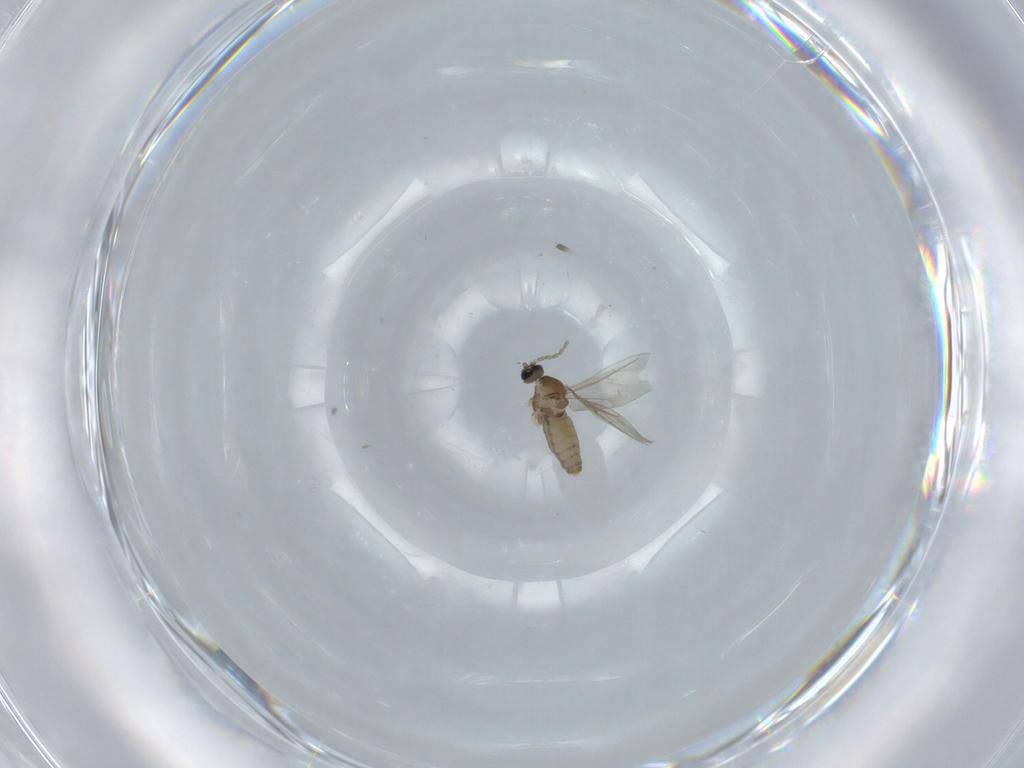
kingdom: Animalia
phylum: Arthropoda
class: Insecta
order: Diptera
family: Cecidomyiidae
